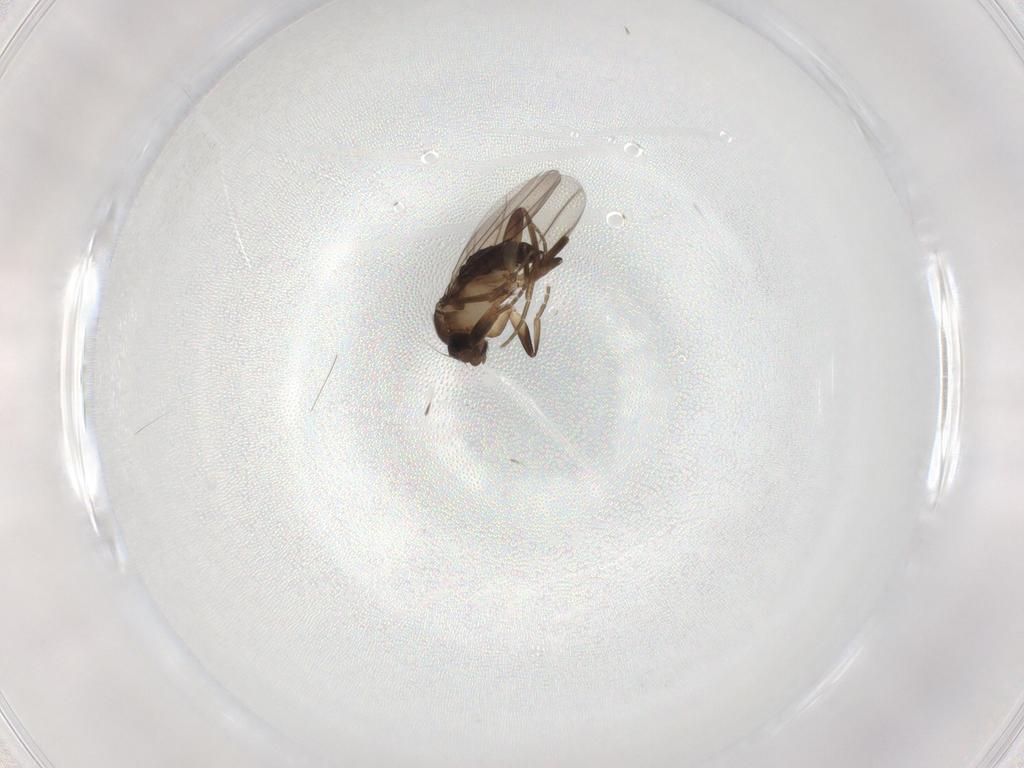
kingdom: Animalia
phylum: Arthropoda
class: Insecta
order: Diptera
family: Phoridae
